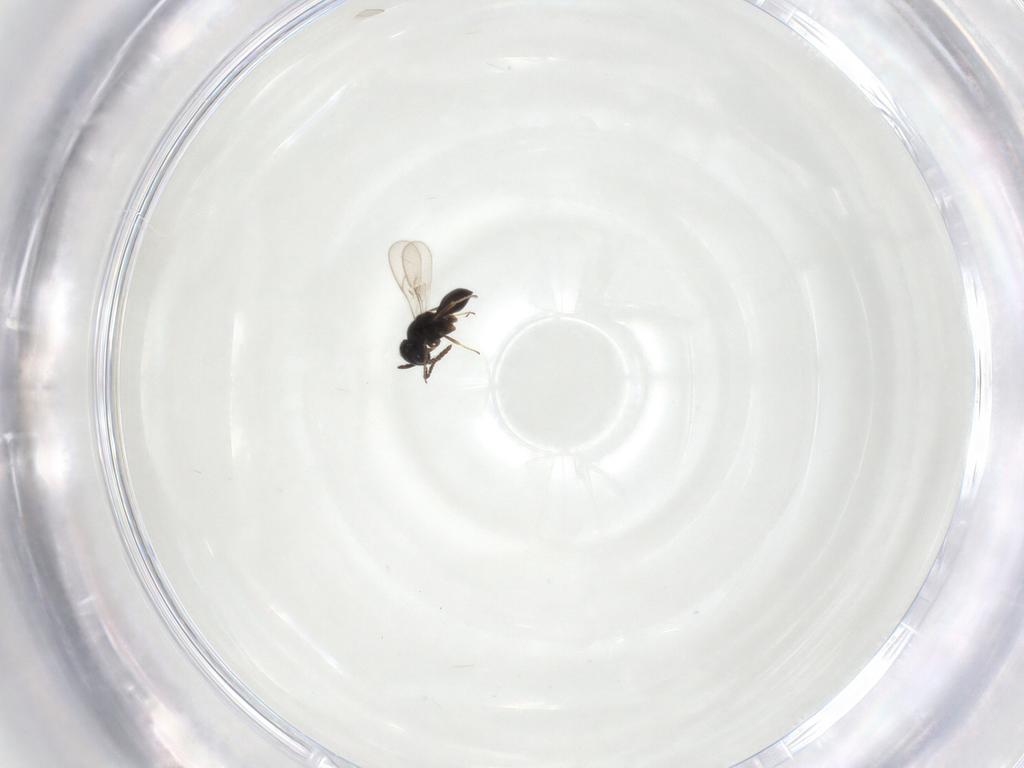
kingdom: Animalia
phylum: Arthropoda
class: Insecta
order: Hymenoptera
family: Scelionidae
